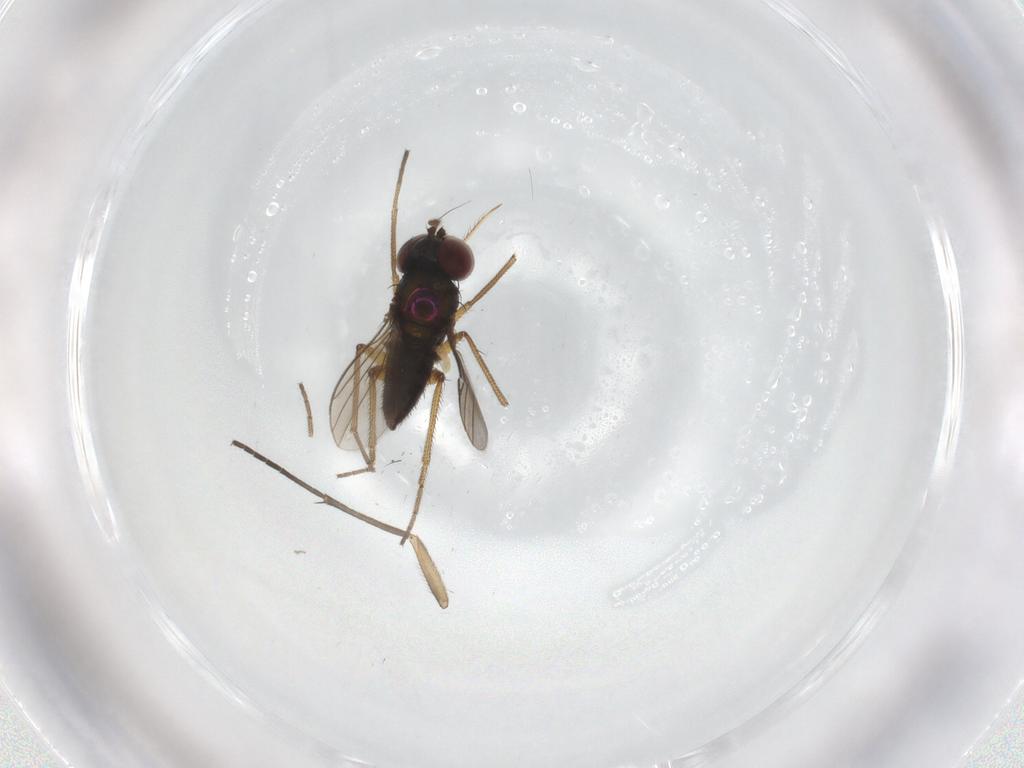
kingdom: Animalia
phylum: Arthropoda
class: Insecta
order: Diptera
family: Dolichopodidae
